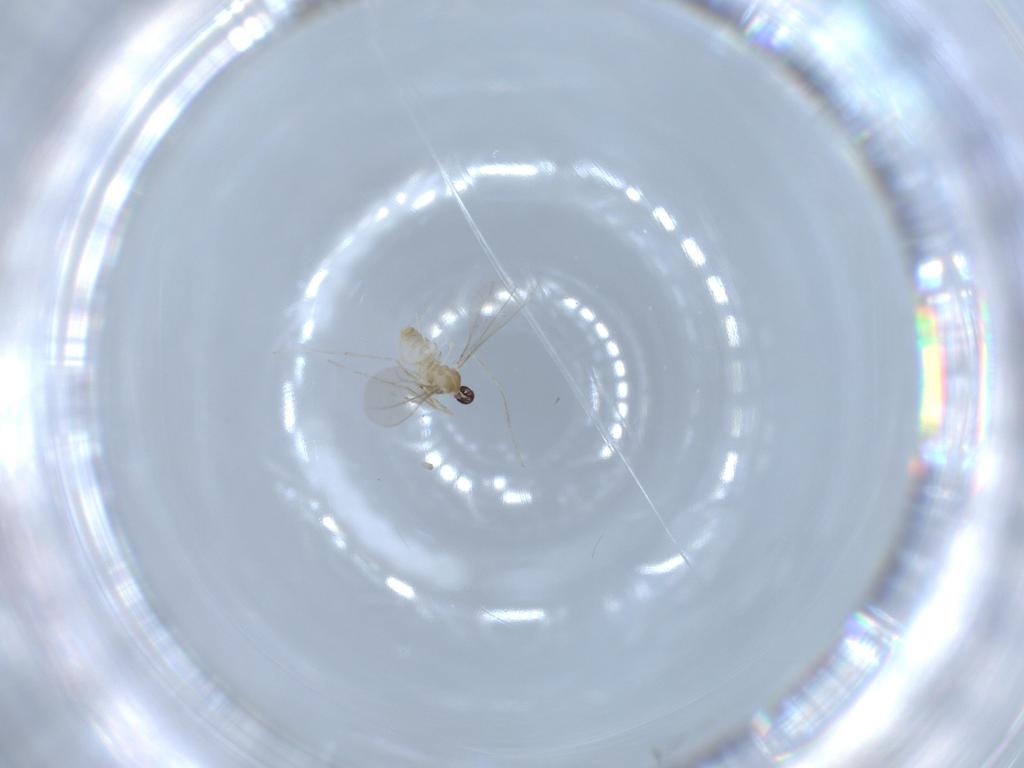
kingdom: Animalia
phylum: Arthropoda
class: Insecta
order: Diptera
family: Cecidomyiidae
